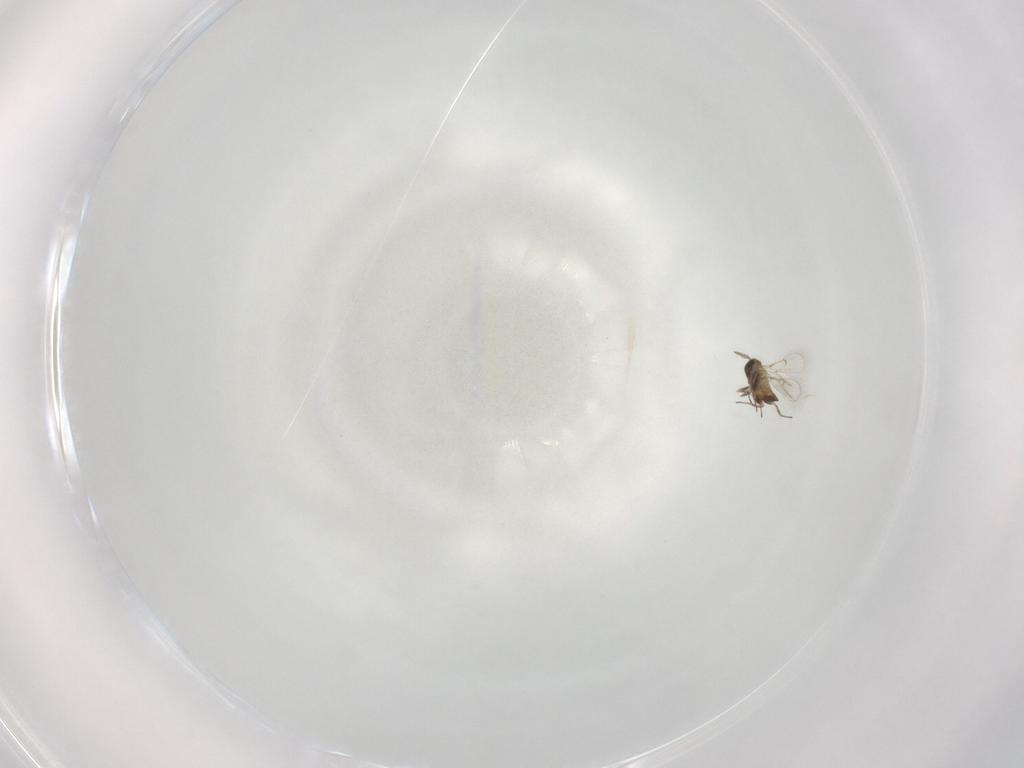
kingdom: Animalia
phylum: Arthropoda
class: Insecta
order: Hymenoptera
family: Trichogrammatidae
